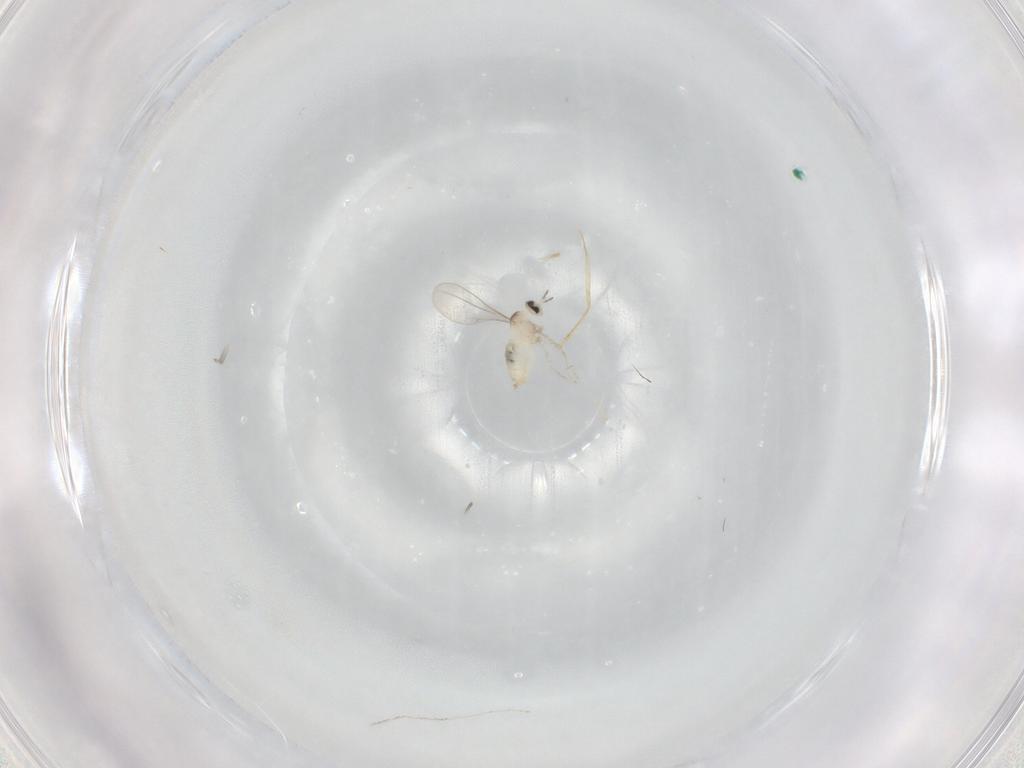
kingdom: Animalia
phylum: Arthropoda
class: Insecta
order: Diptera
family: Cecidomyiidae
